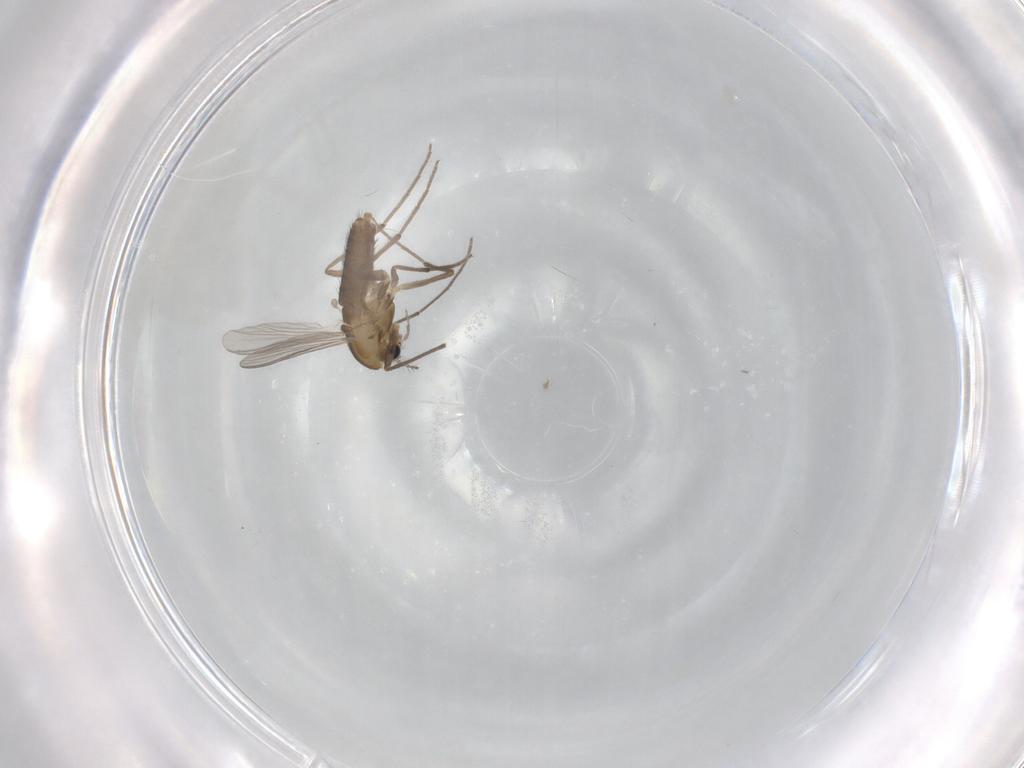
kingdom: Animalia
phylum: Arthropoda
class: Insecta
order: Diptera
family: Chironomidae
